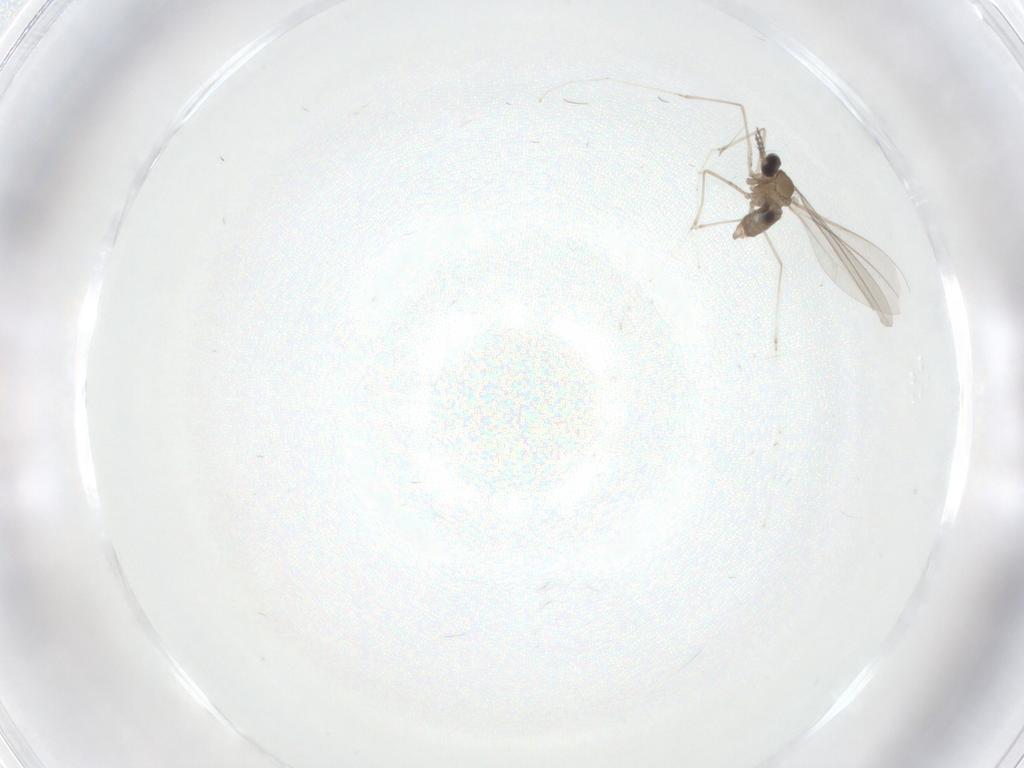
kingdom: Animalia
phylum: Arthropoda
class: Insecta
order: Diptera
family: Cecidomyiidae
